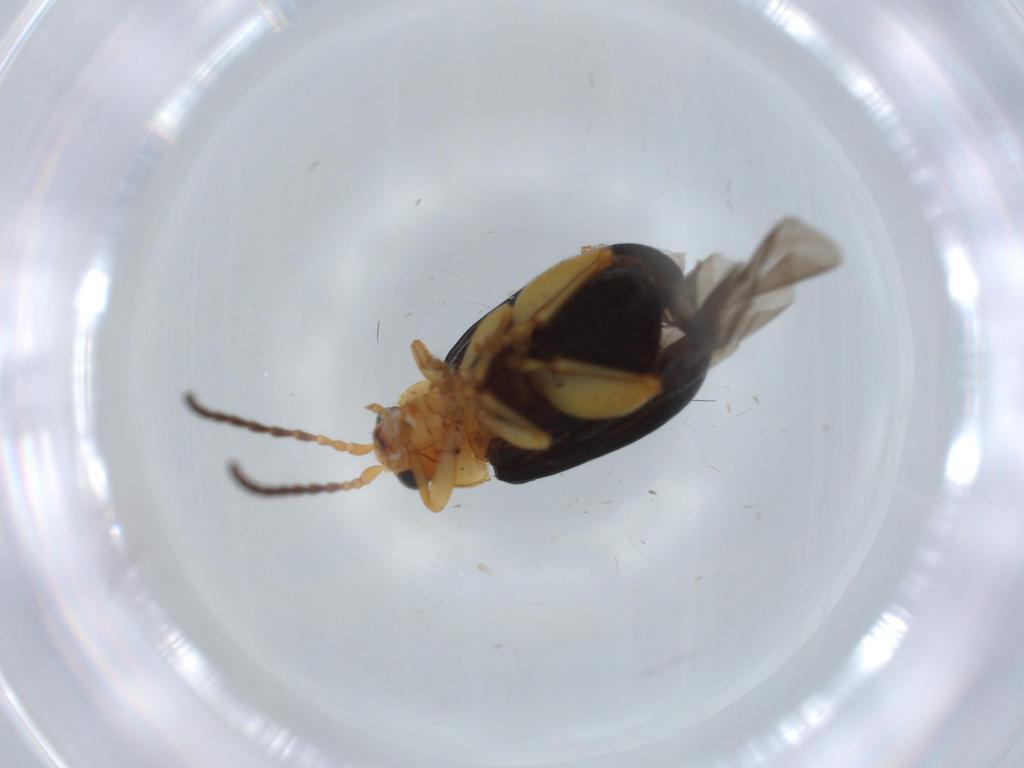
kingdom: Animalia
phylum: Arthropoda
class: Insecta
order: Coleoptera
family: Chrysomelidae
